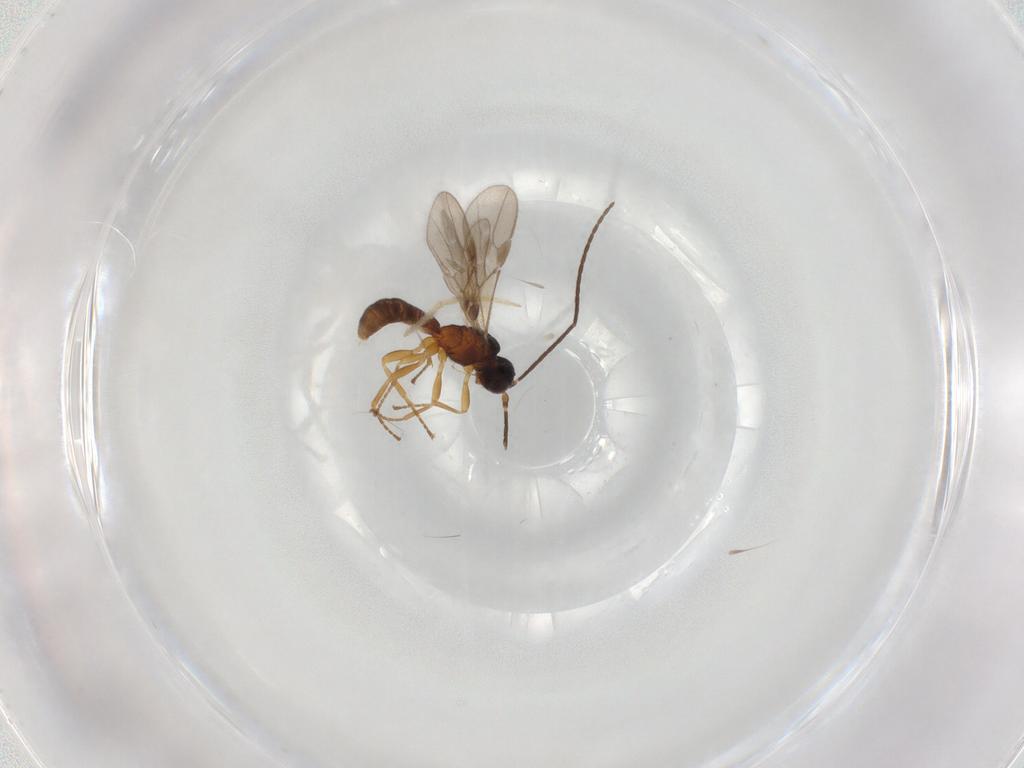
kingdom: Animalia
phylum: Arthropoda
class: Insecta
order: Hymenoptera
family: Braconidae
